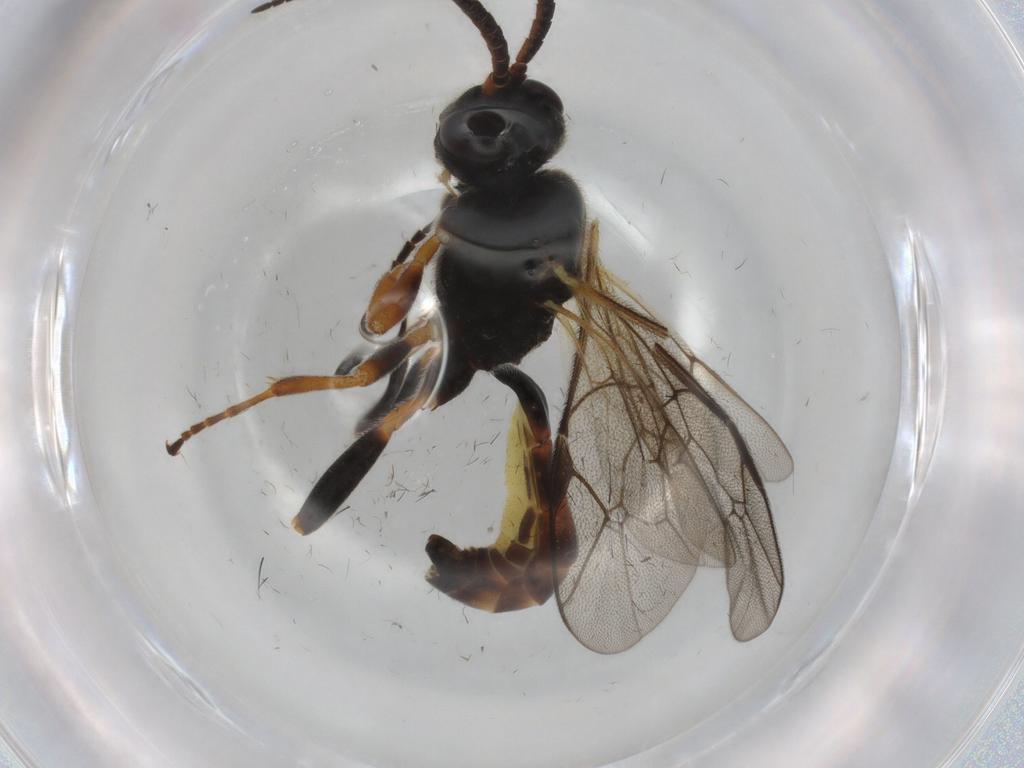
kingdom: Animalia
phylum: Arthropoda
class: Insecta
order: Hymenoptera
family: Ichneumonidae
